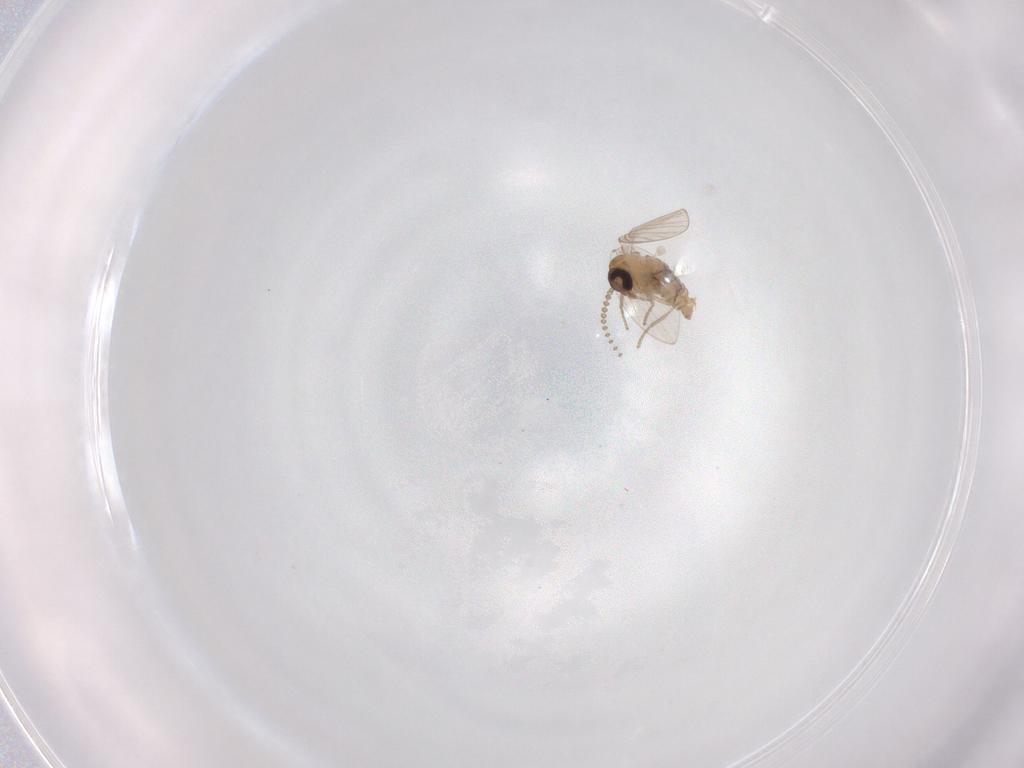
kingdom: Animalia
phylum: Arthropoda
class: Insecta
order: Diptera
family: Psychodidae
